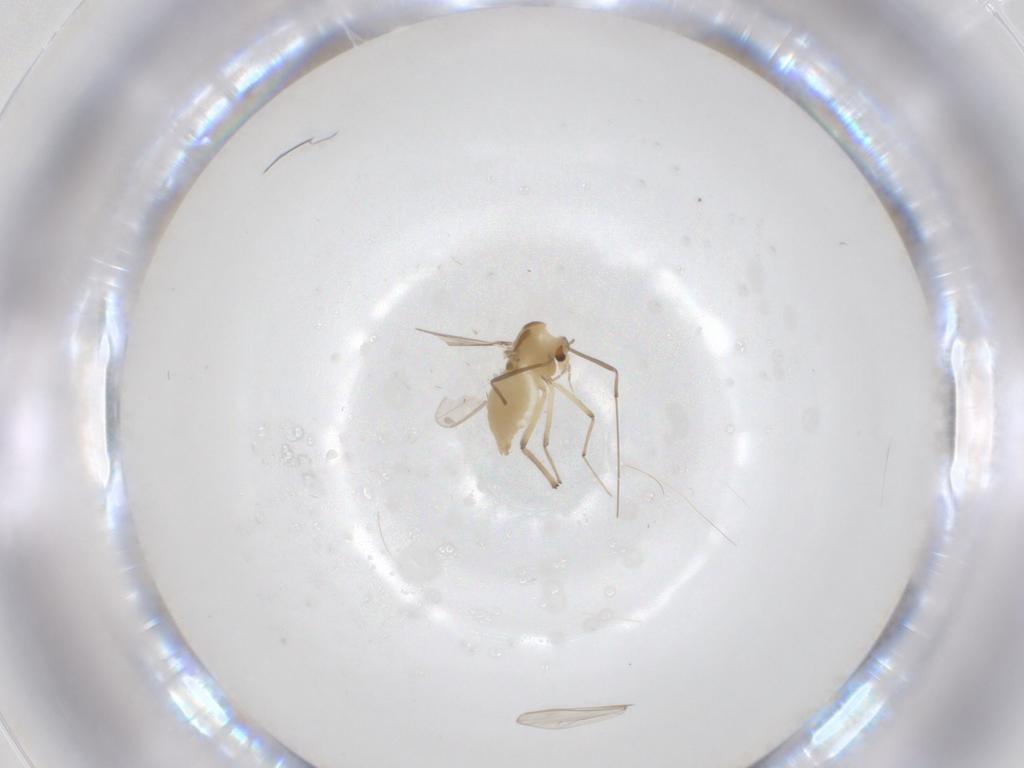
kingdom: Animalia
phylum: Arthropoda
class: Insecta
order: Diptera
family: Chironomidae
